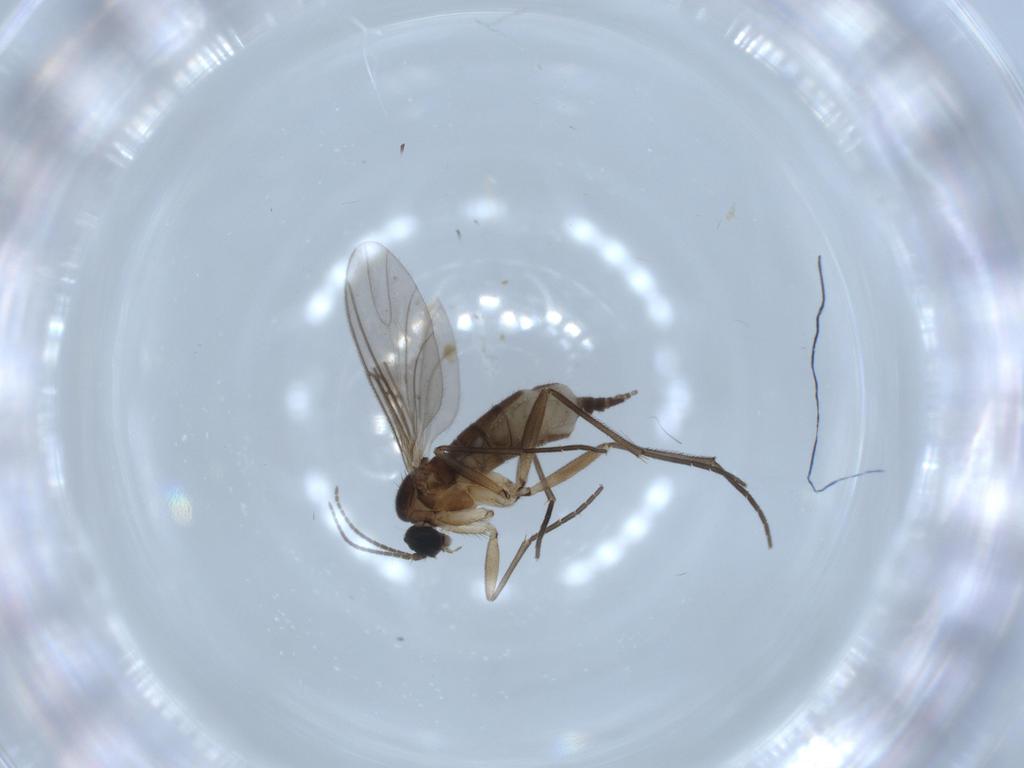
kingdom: Animalia
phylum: Arthropoda
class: Insecta
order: Diptera
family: Sciaridae
